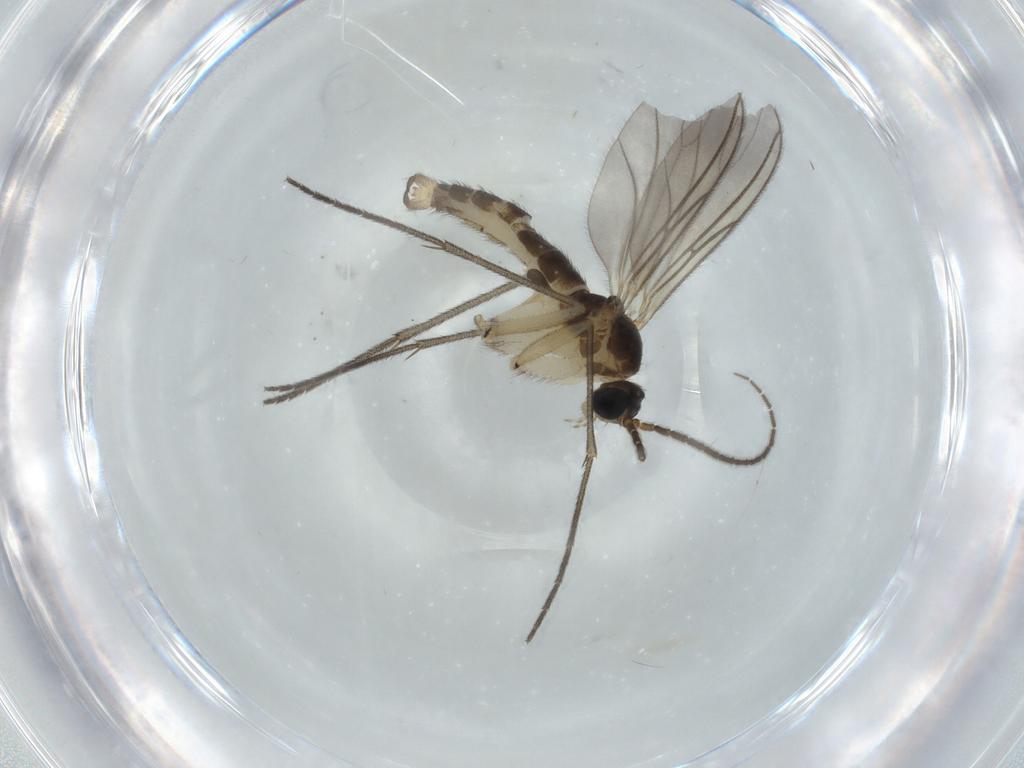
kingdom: Animalia
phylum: Arthropoda
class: Insecta
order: Diptera
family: Sciaridae
